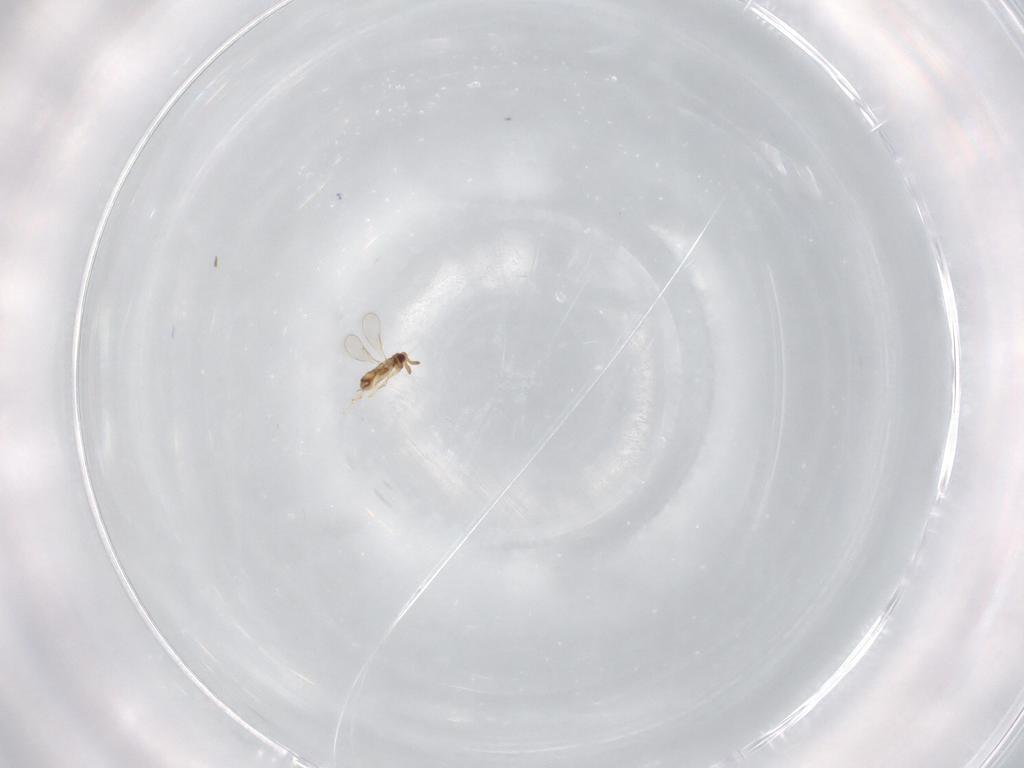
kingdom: Animalia
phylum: Arthropoda
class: Insecta
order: Hymenoptera
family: Aphelinidae
